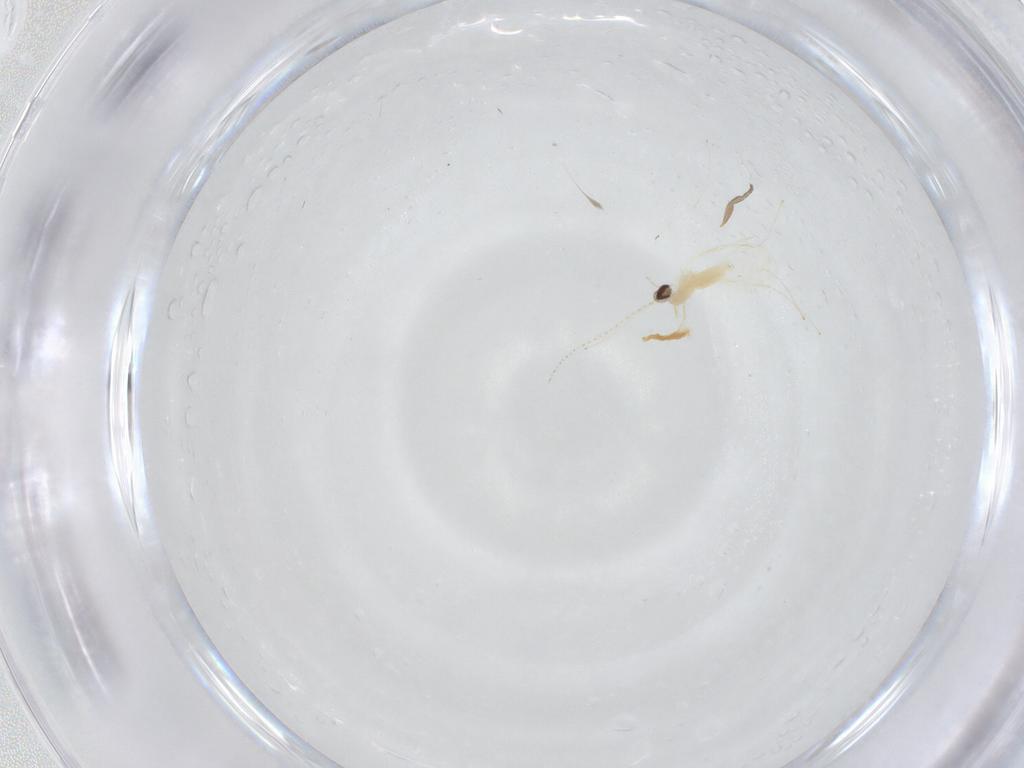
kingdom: Animalia
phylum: Arthropoda
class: Insecta
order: Diptera
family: Cecidomyiidae
